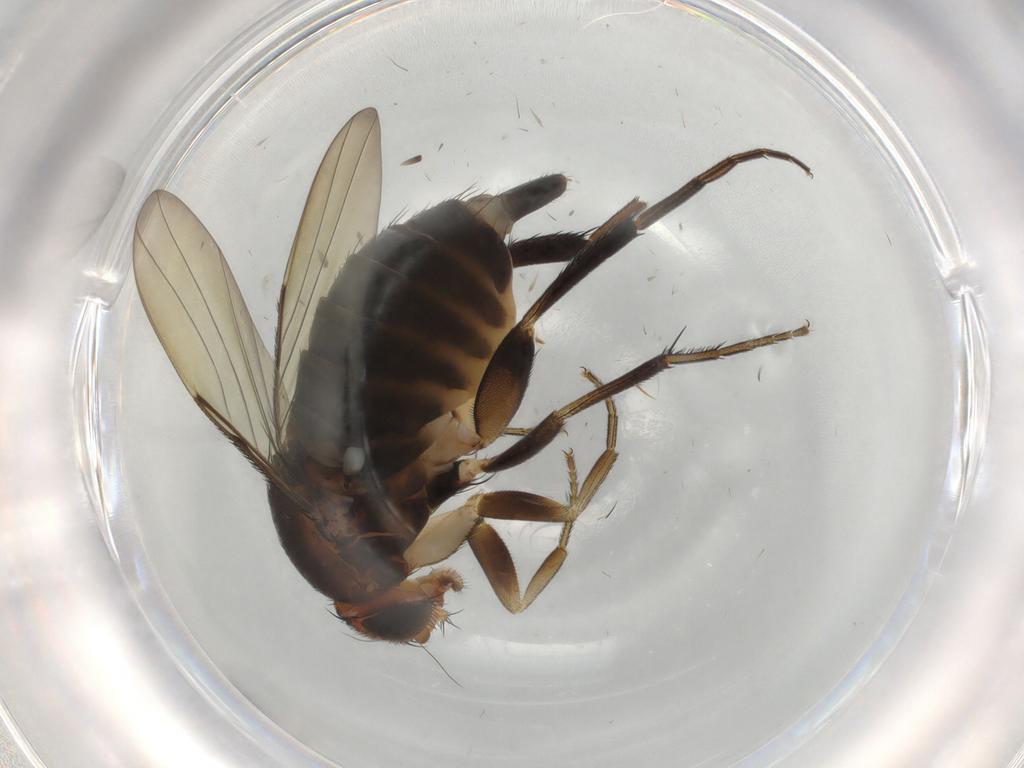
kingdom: Animalia
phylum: Arthropoda
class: Insecta
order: Diptera
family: Phoridae
